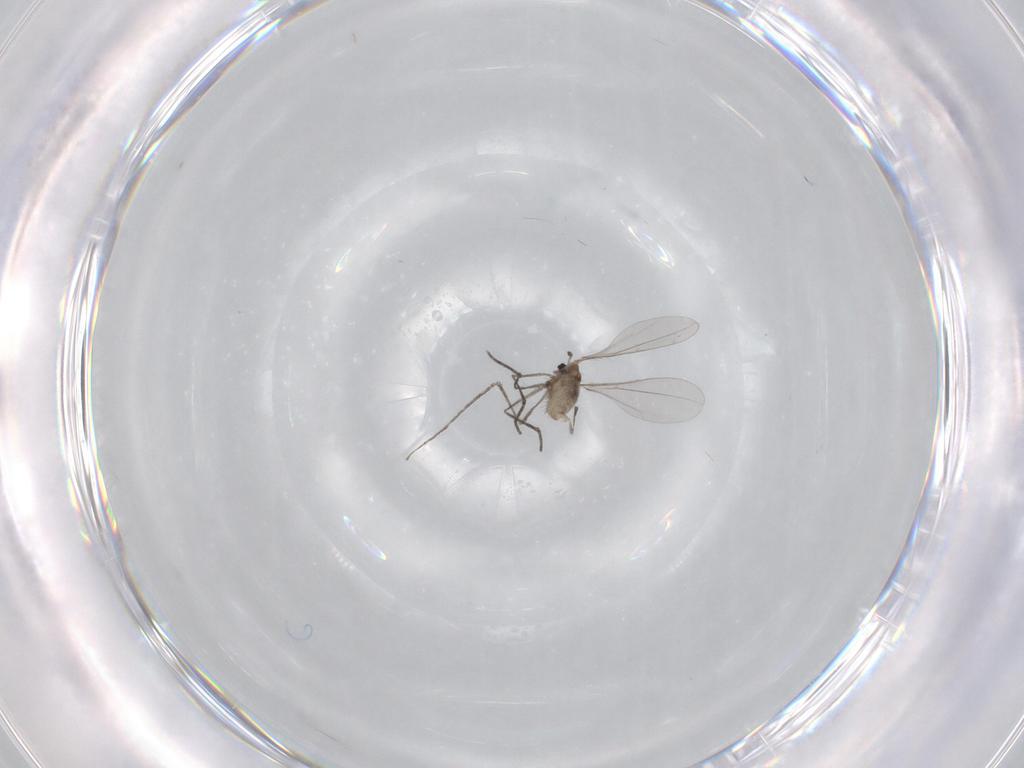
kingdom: Animalia
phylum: Arthropoda
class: Insecta
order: Diptera
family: Cecidomyiidae
